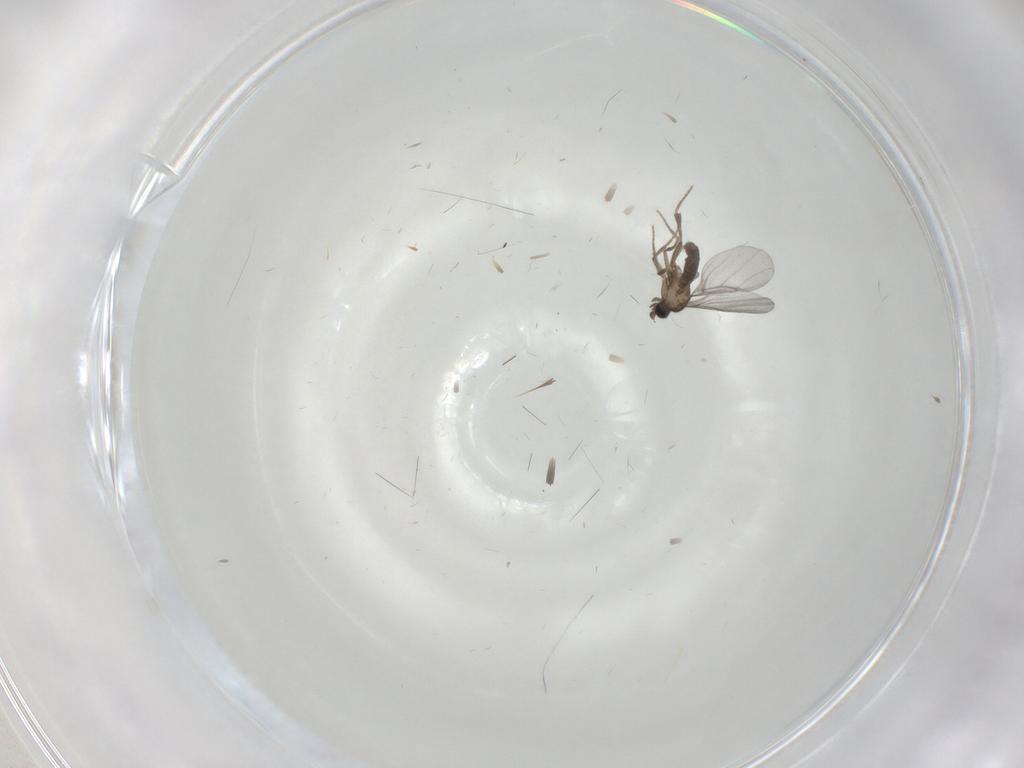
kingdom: Animalia
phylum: Arthropoda
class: Insecta
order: Diptera
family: Phoridae
